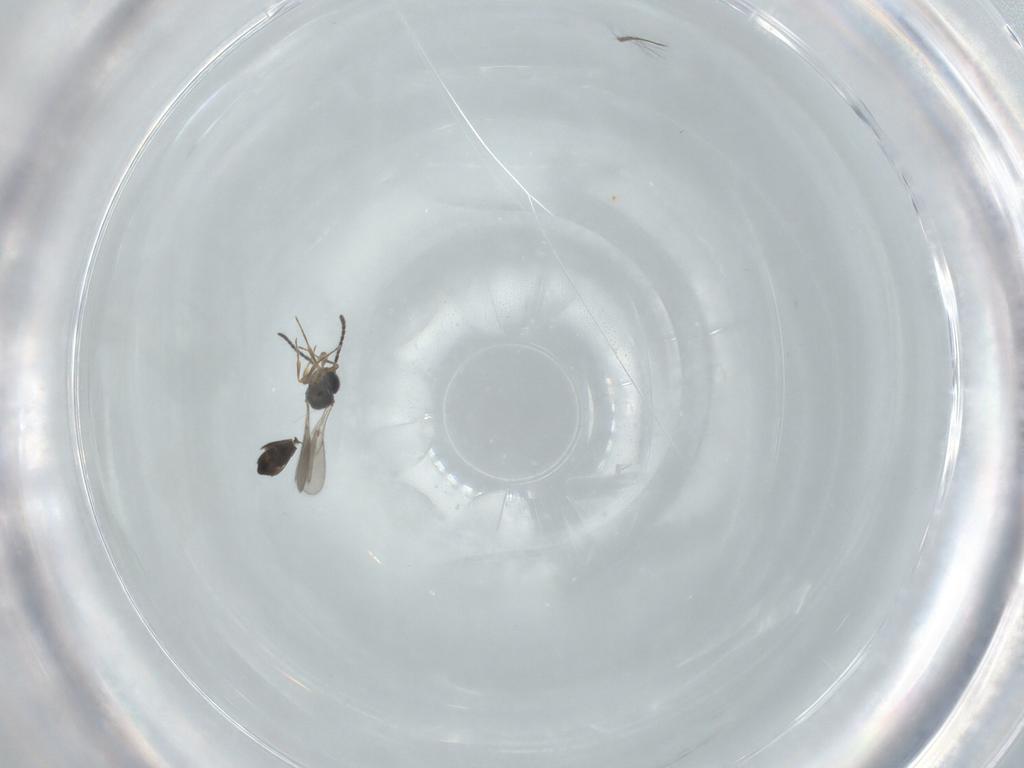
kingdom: Animalia
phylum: Arthropoda
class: Insecta
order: Hymenoptera
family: Scelionidae
